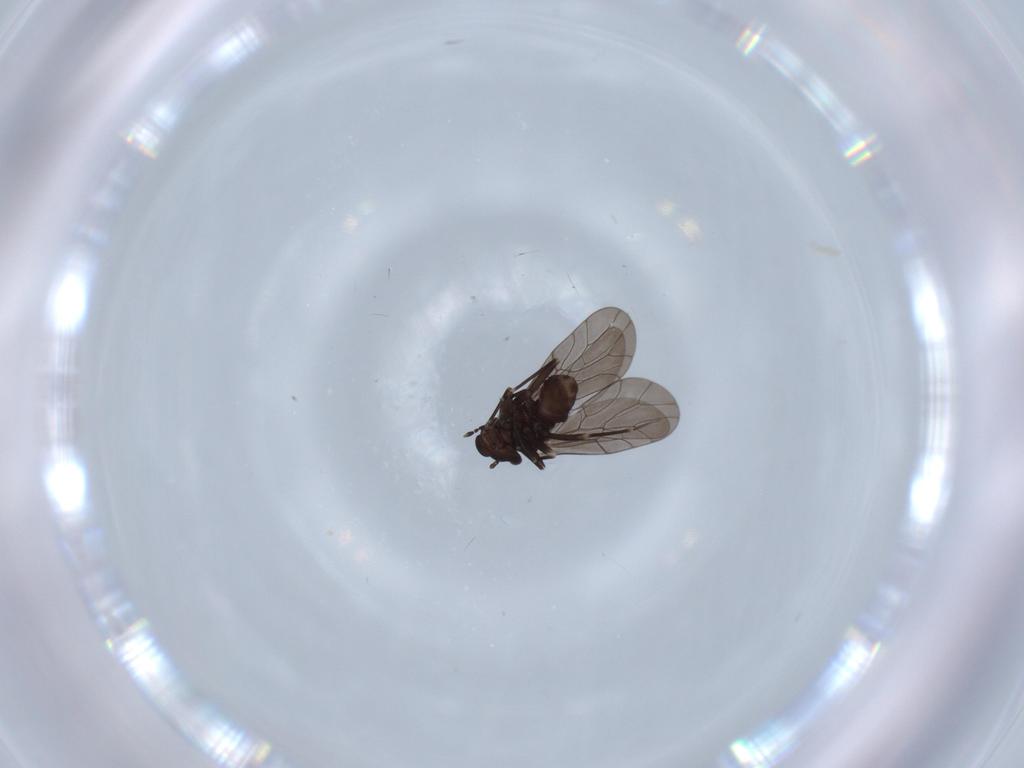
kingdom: Animalia
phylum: Arthropoda
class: Insecta
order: Psocodea
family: Lepidopsocidae
